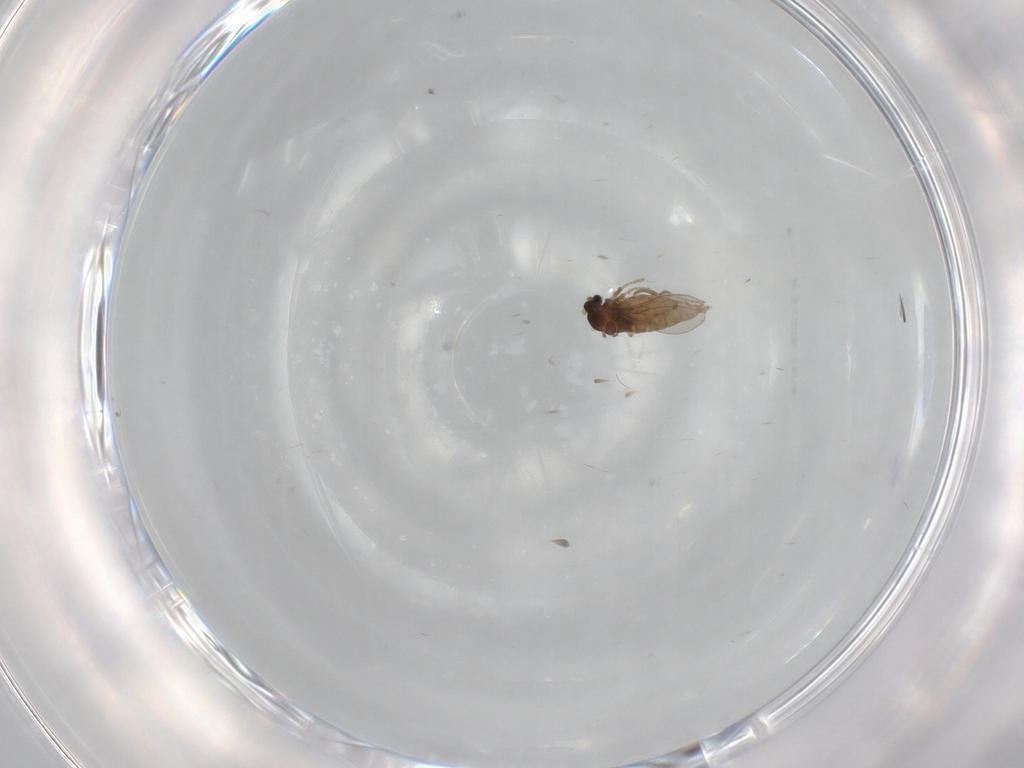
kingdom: Animalia
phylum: Arthropoda
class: Insecta
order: Diptera
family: Cecidomyiidae
